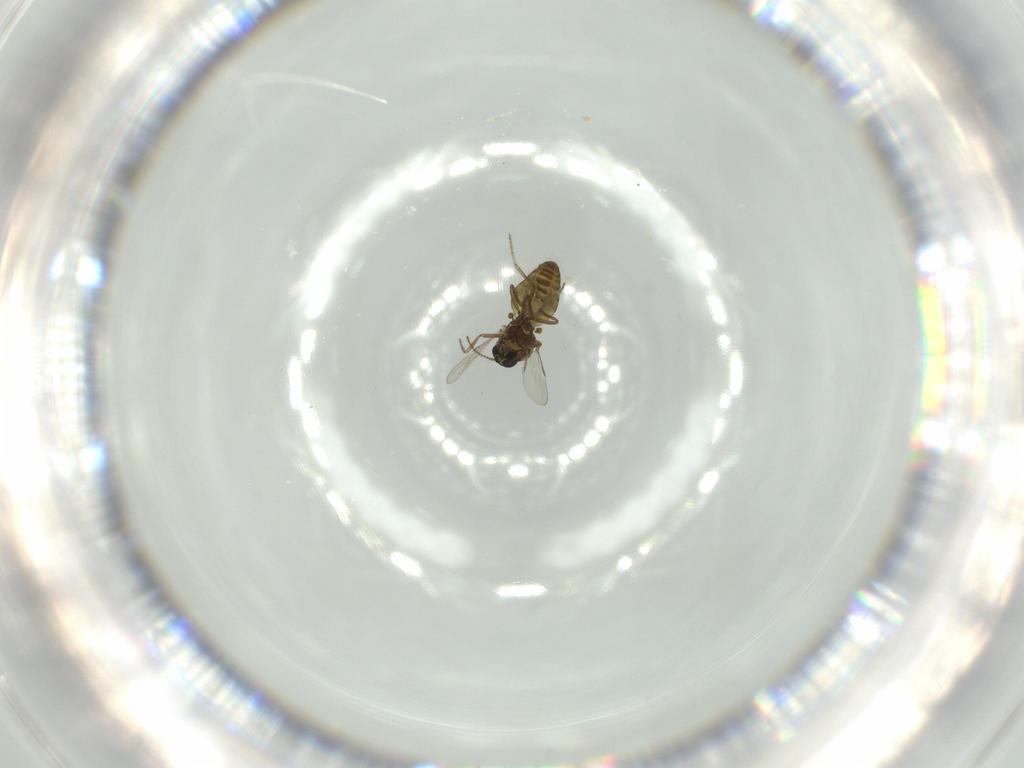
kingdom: Animalia
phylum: Arthropoda
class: Insecta
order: Diptera
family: Ceratopogonidae
